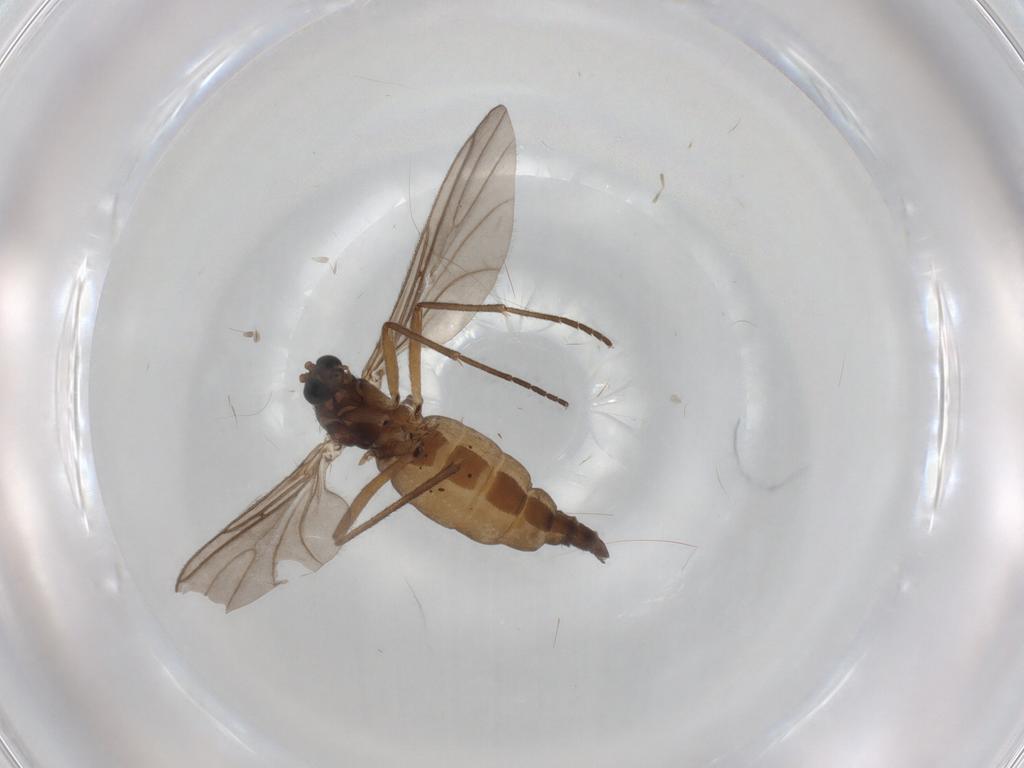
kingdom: Animalia
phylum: Arthropoda
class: Insecta
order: Diptera
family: Sciaridae
